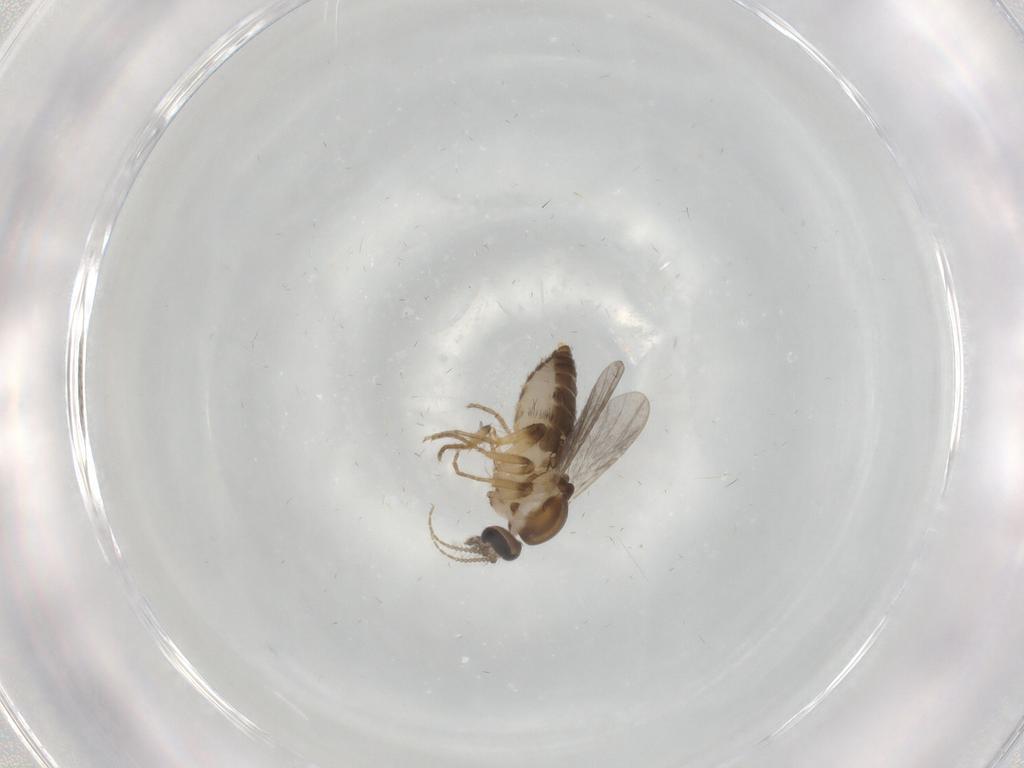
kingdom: Animalia
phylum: Arthropoda
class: Insecta
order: Diptera
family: Ceratopogonidae
